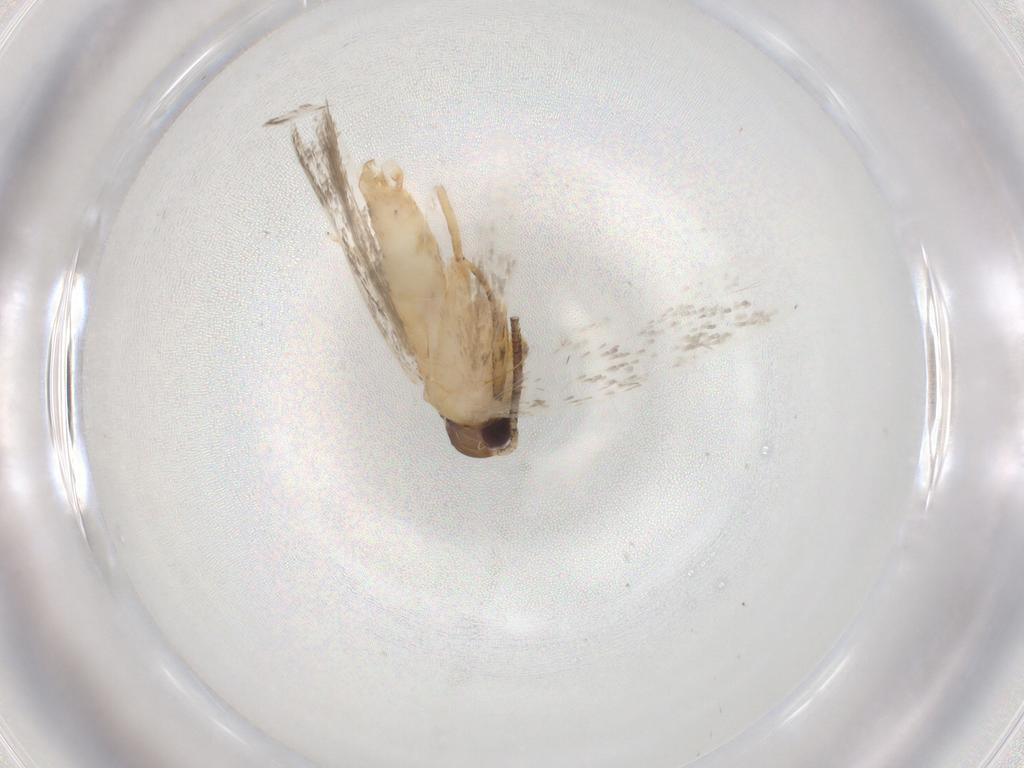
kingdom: Animalia
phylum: Arthropoda
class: Insecta
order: Lepidoptera
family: Autostichidae
